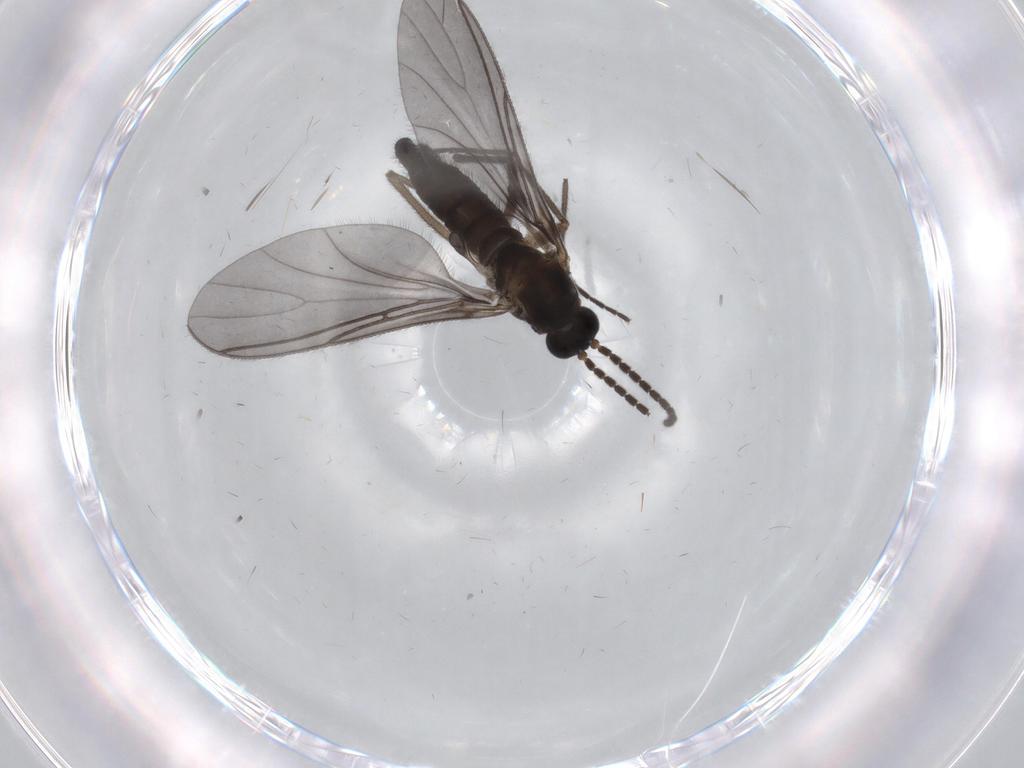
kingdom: Animalia
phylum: Arthropoda
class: Insecta
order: Diptera
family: Sciaridae
